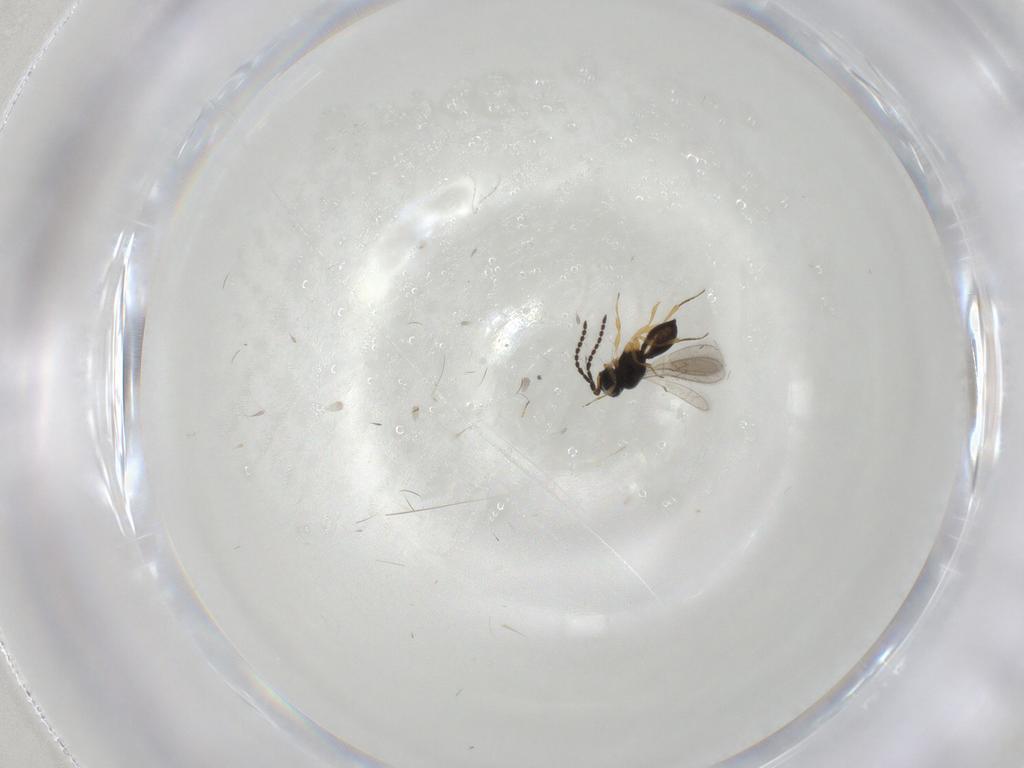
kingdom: Animalia
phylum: Arthropoda
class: Insecta
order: Hymenoptera
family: Scelionidae
